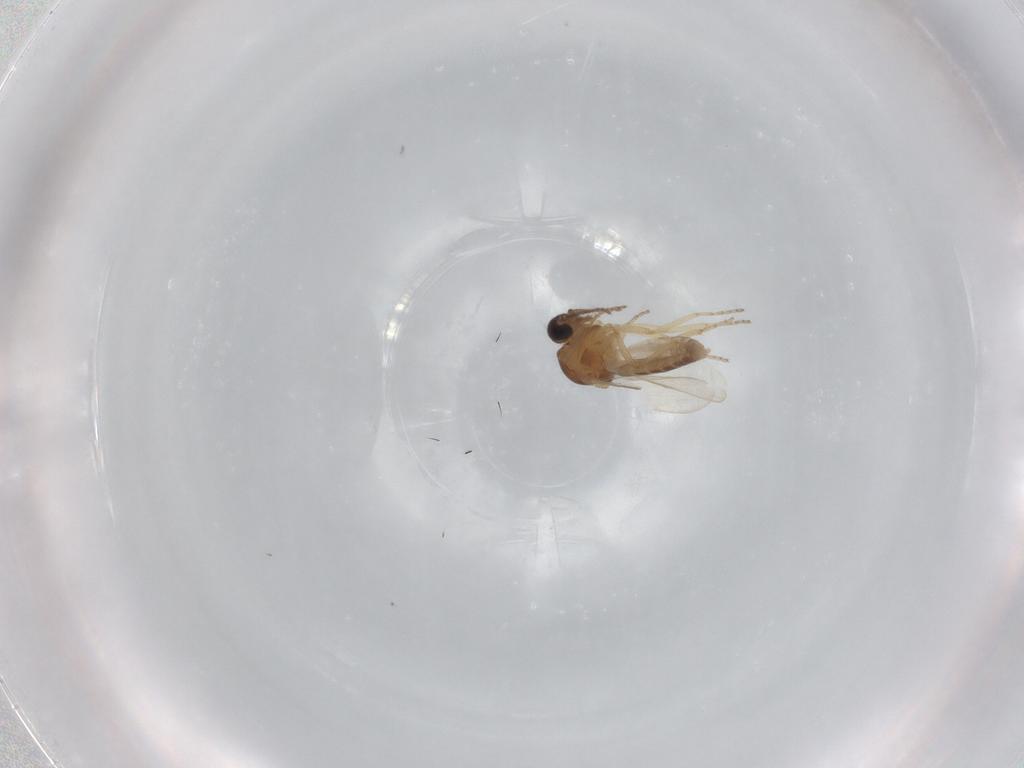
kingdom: Animalia
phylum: Arthropoda
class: Insecta
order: Diptera
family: Ceratopogonidae
